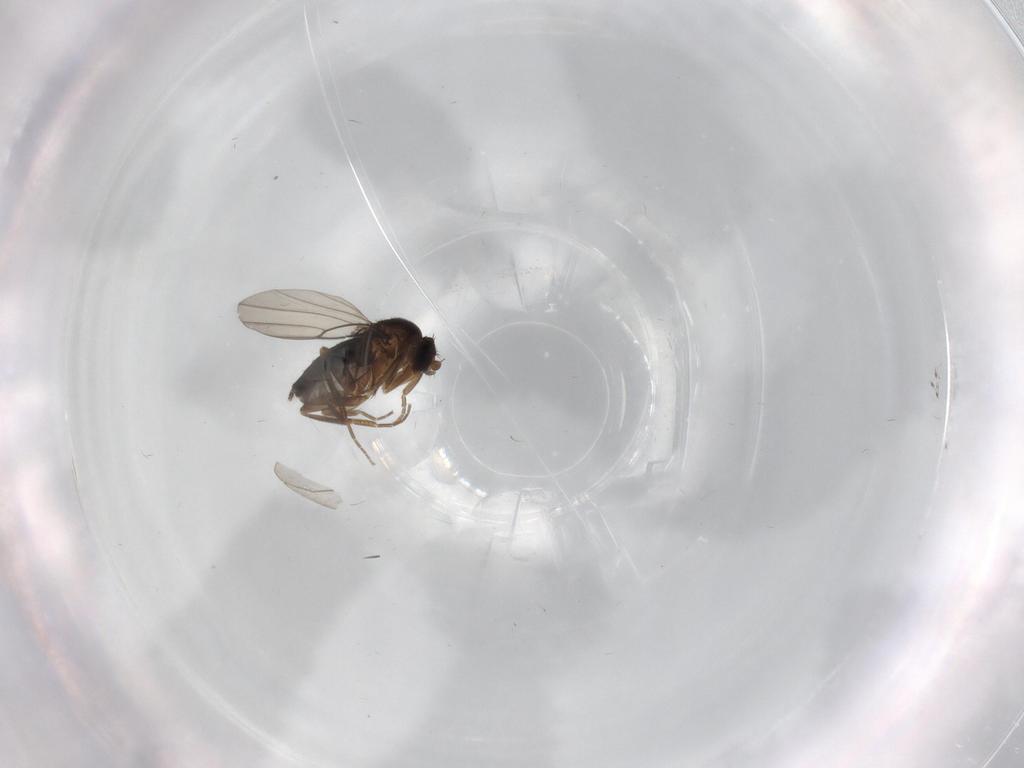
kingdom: Animalia
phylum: Arthropoda
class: Insecta
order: Diptera
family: Cecidomyiidae
